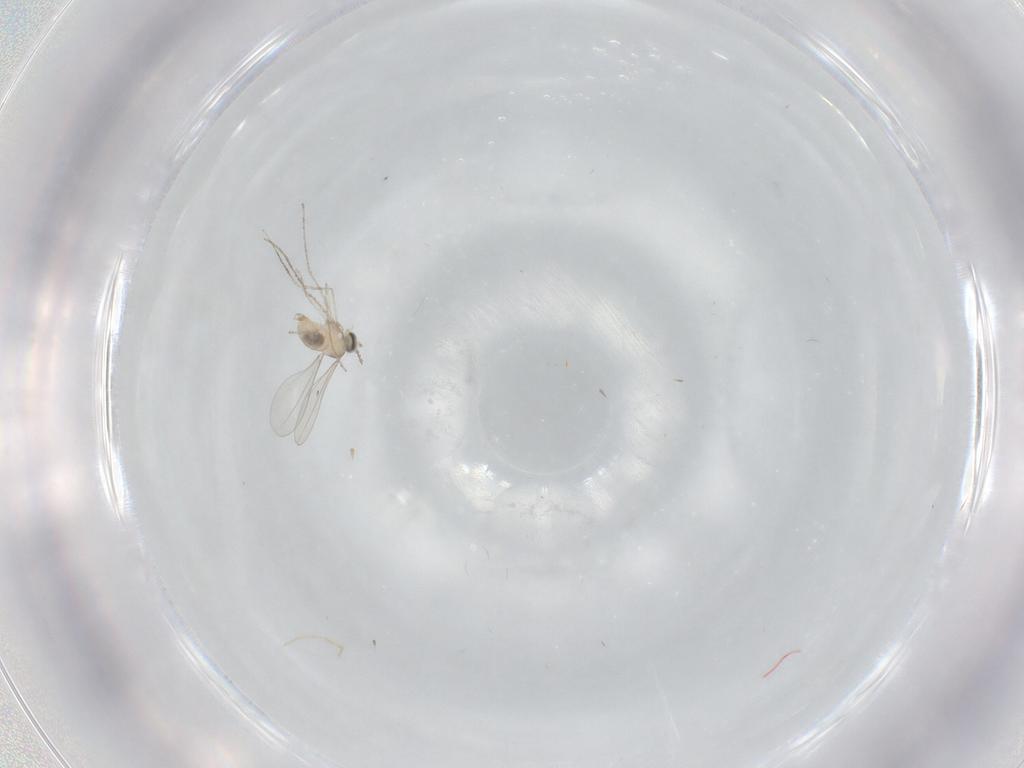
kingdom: Animalia
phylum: Arthropoda
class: Insecta
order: Diptera
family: Cecidomyiidae
